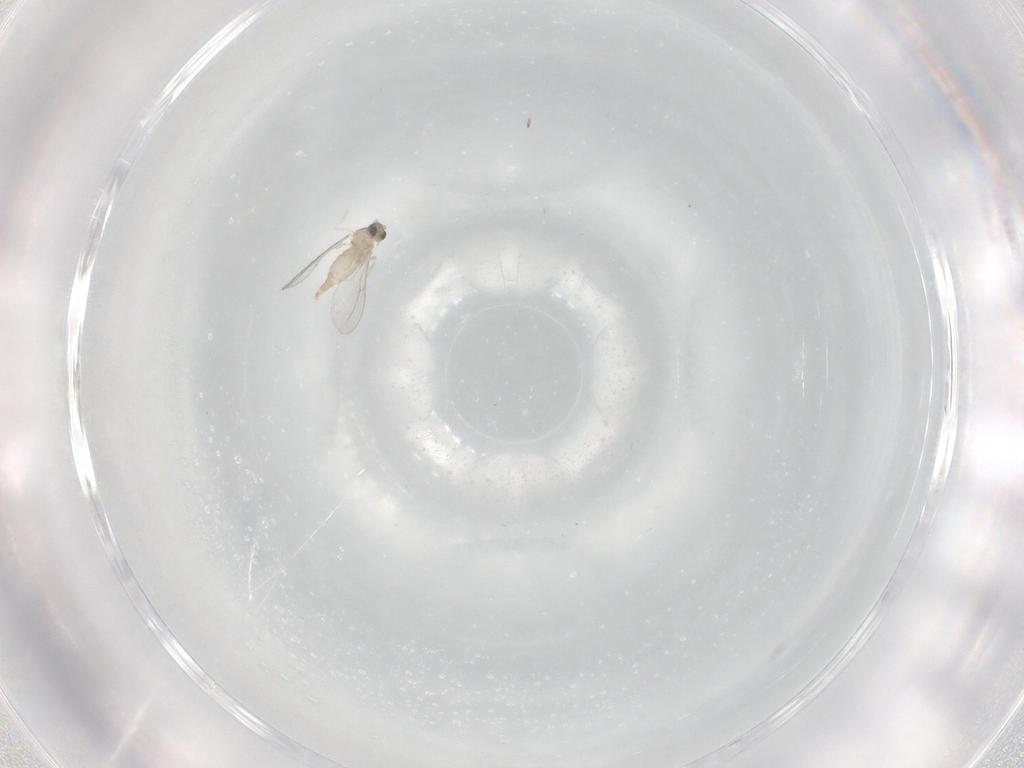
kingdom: Animalia
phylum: Arthropoda
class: Insecta
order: Diptera
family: Cecidomyiidae
